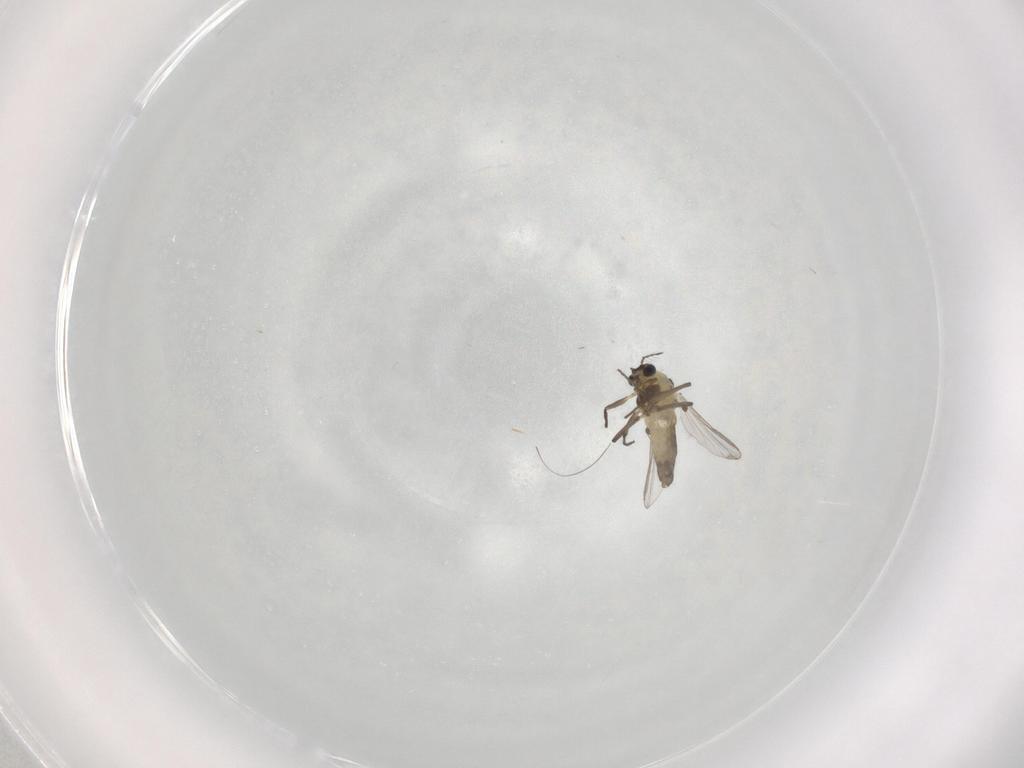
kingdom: Animalia
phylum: Arthropoda
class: Insecta
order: Diptera
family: Chironomidae
